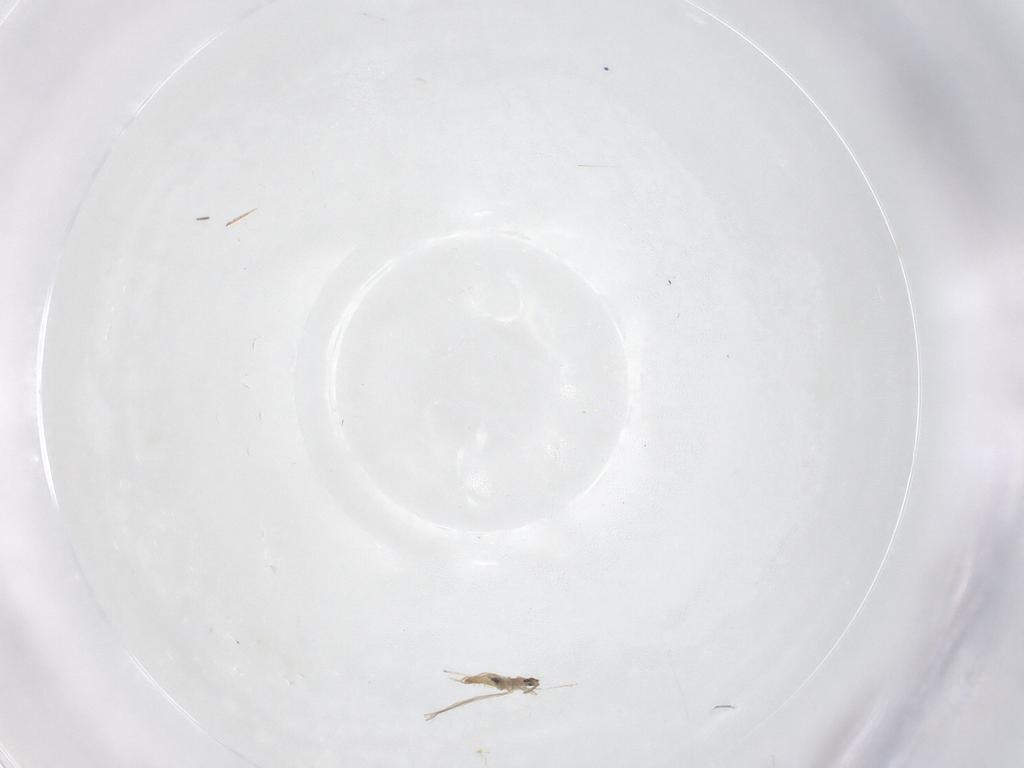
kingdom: Animalia
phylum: Arthropoda
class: Insecta
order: Diptera
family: Cecidomyiidae
